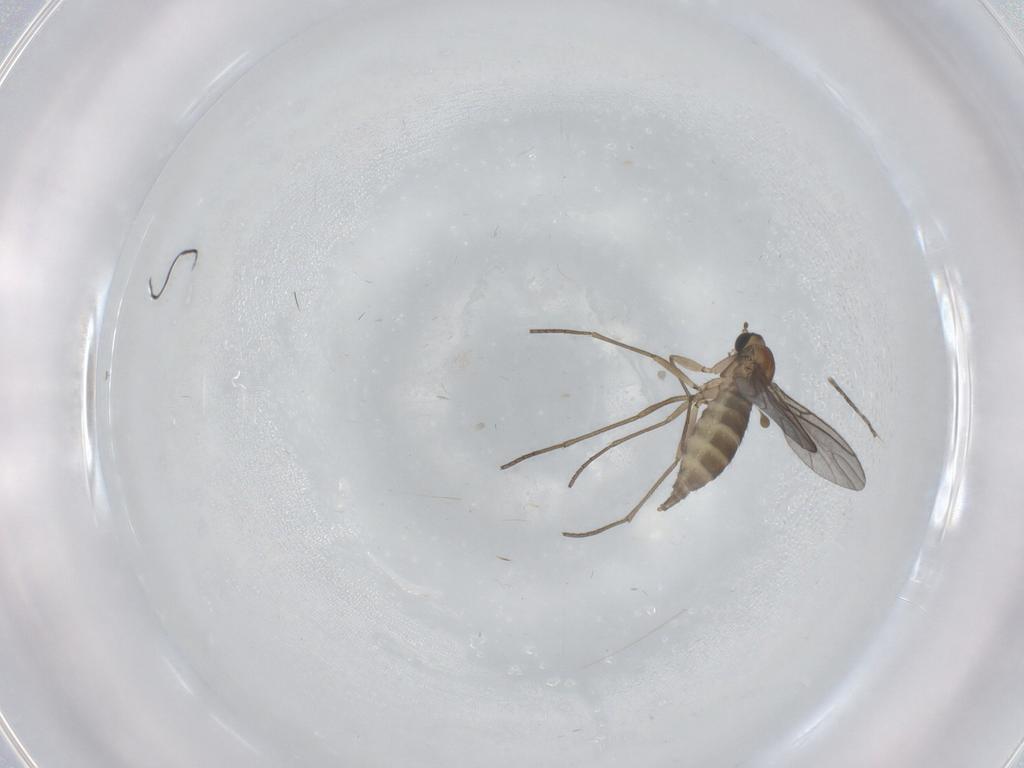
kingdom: Animalia
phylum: Arthropoda
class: Insecta
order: Diptera
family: Sciaridae
